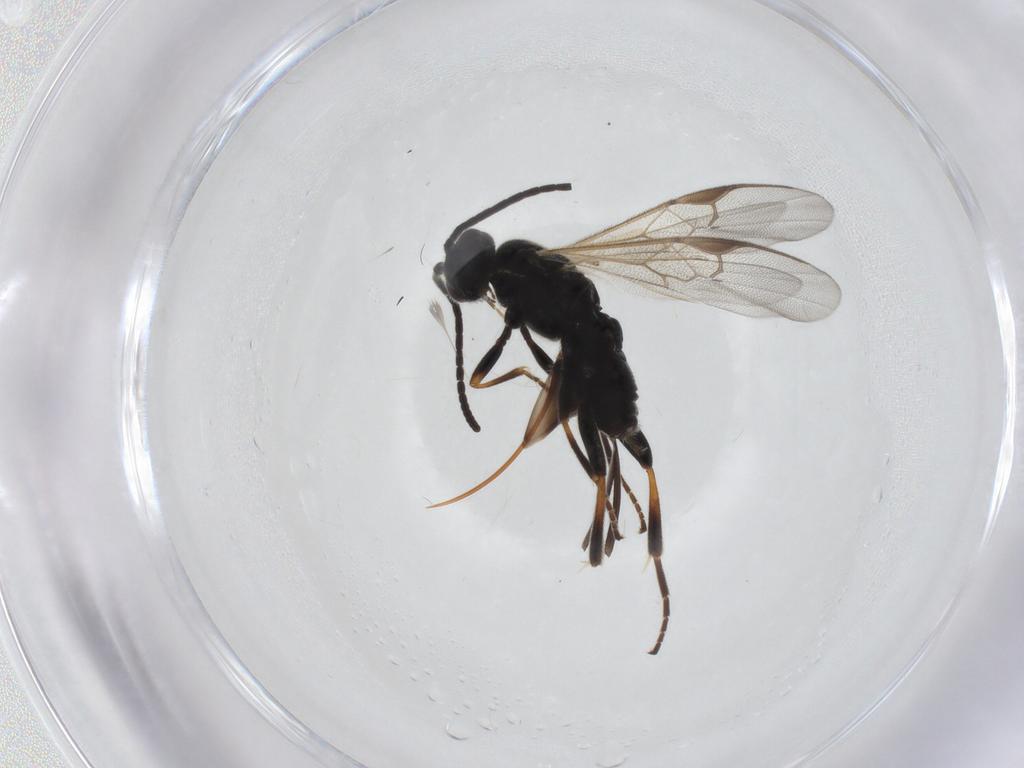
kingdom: Animalia
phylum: Arthropoda
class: Insecta
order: Hymenoptera
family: Braconidae
